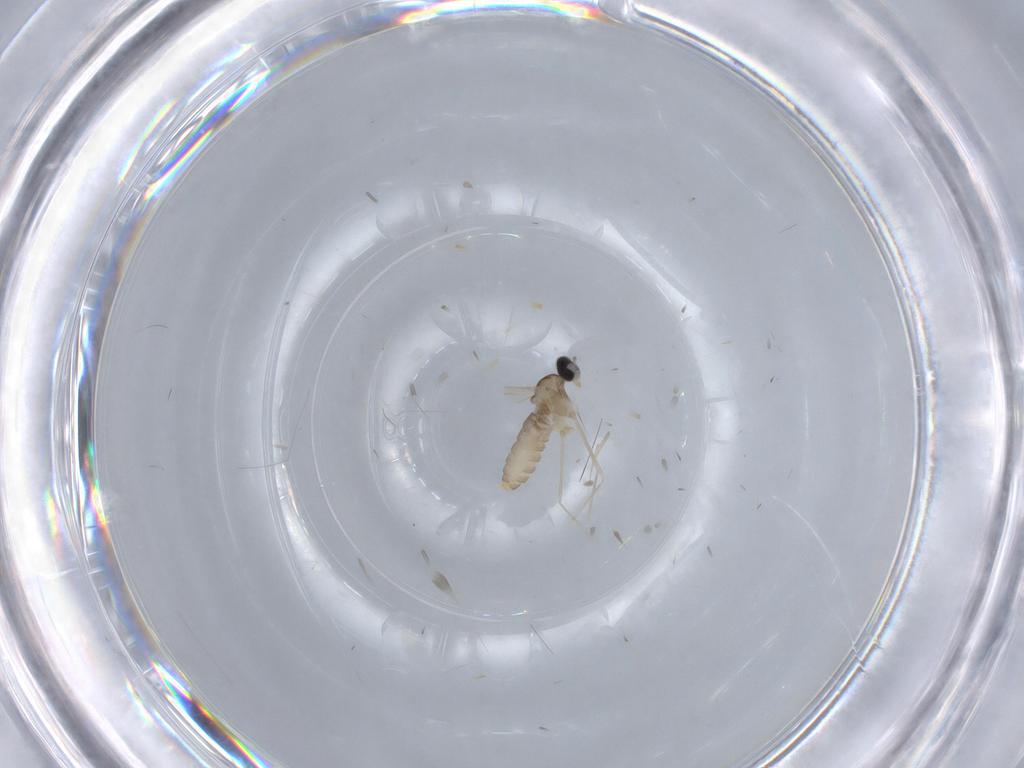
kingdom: Animalia
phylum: Arthropoda
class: Insecta
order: Diptera
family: Cecidomyiidae
